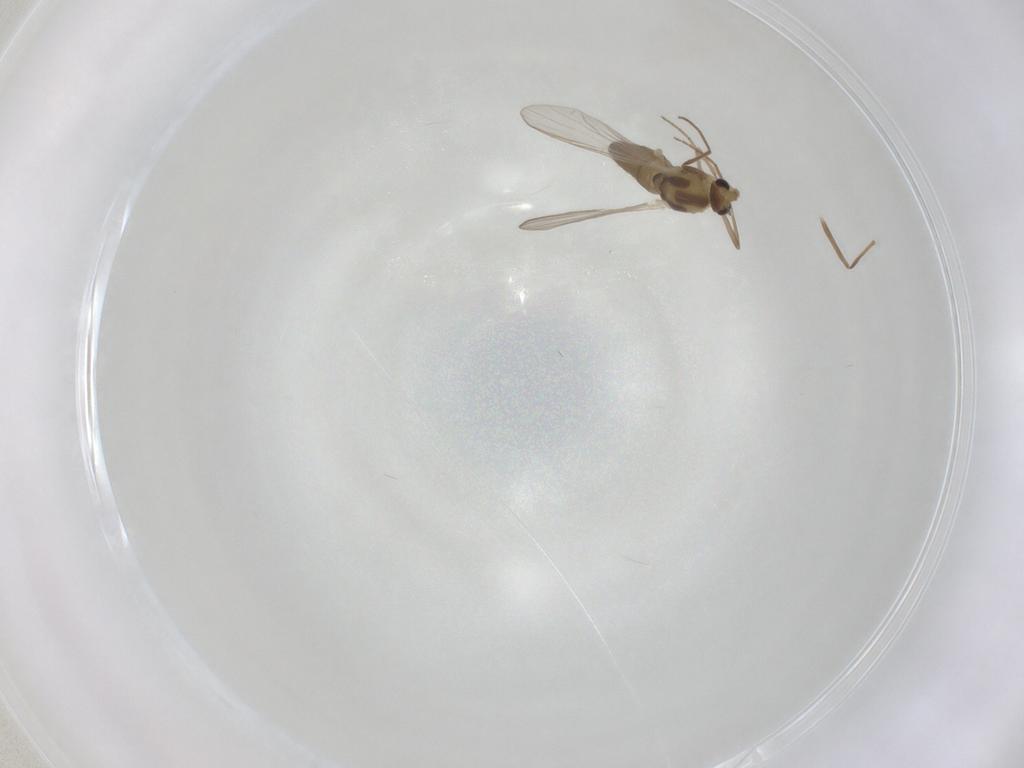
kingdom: Animalia
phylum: Arthropoda
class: Insecta
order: Diptera
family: Chironomidae
